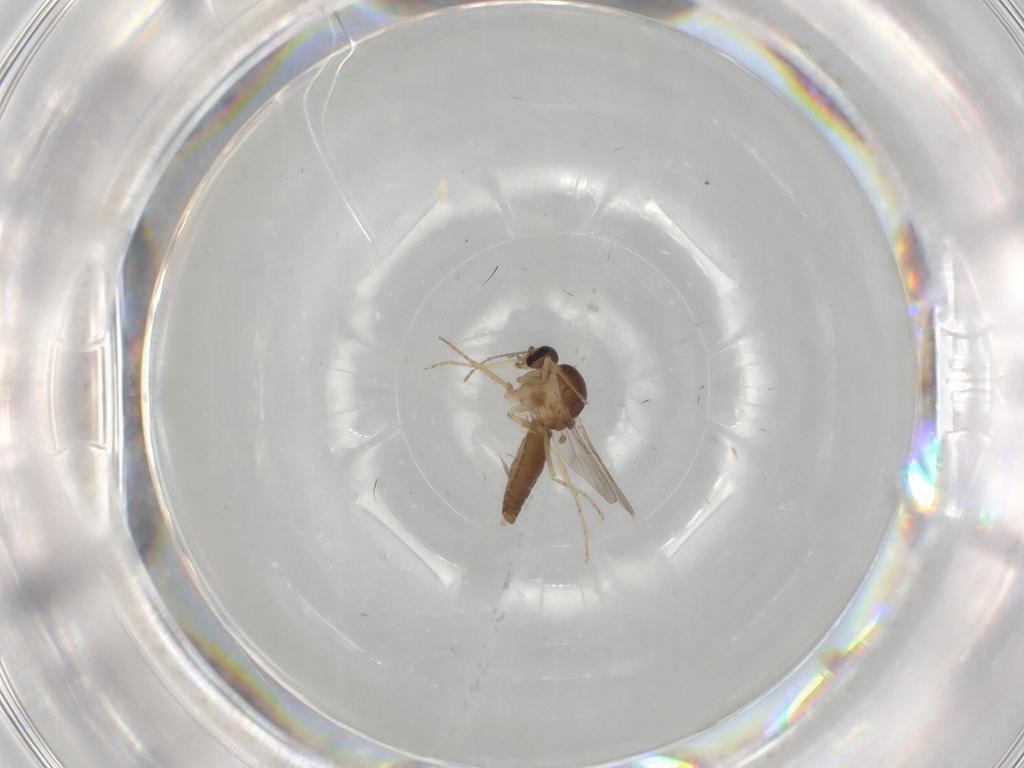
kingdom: Animalia
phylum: Arthropoda
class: Insecta
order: Diptera
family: Ceratopogonidae
